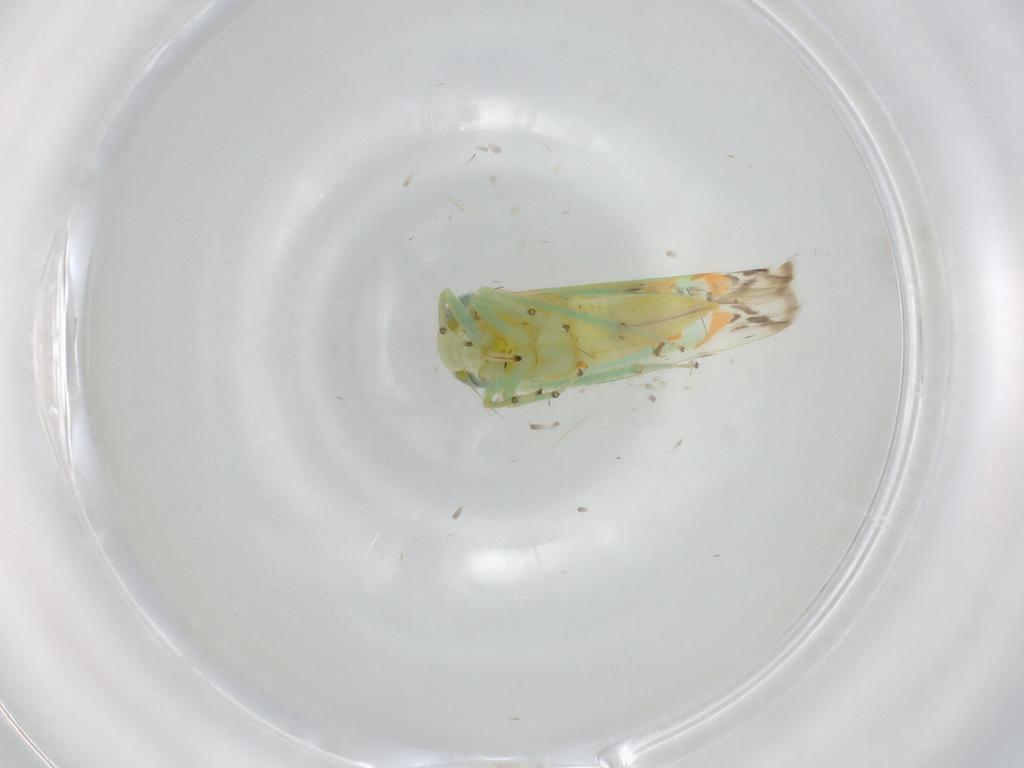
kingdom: Animalia
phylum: Arthropoda
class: Insecta
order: Hemiptera
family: Cicadellidae
